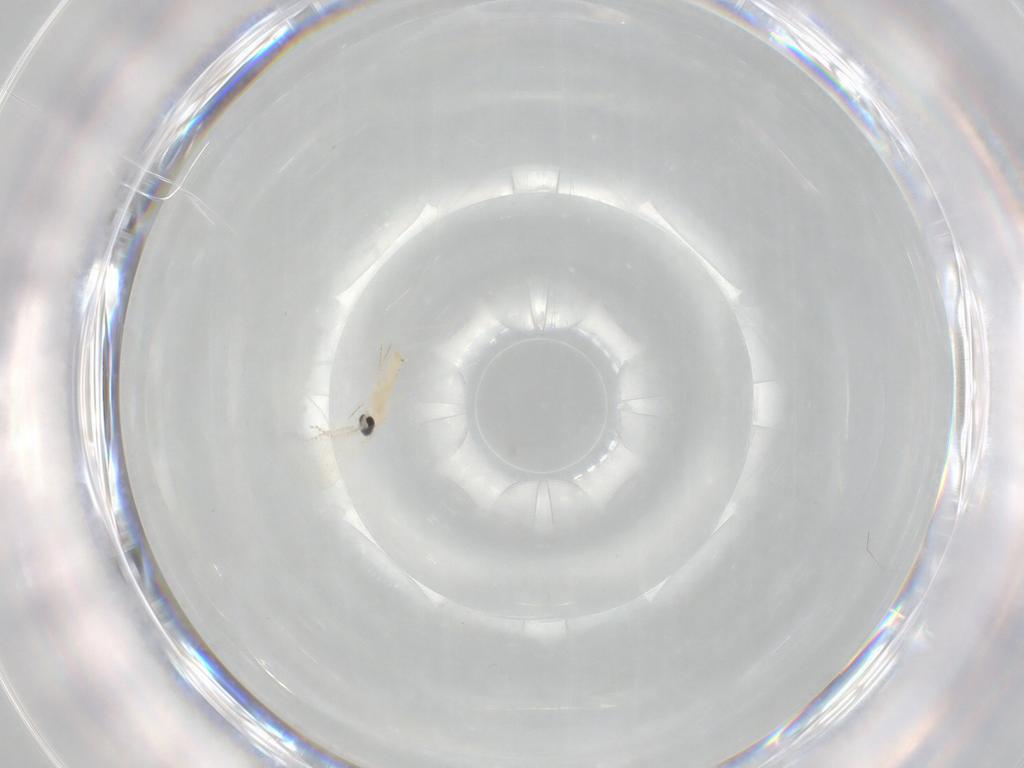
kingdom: Animalia
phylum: Arthropoda
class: Insecta
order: Diptera
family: Cecidomyiidae
